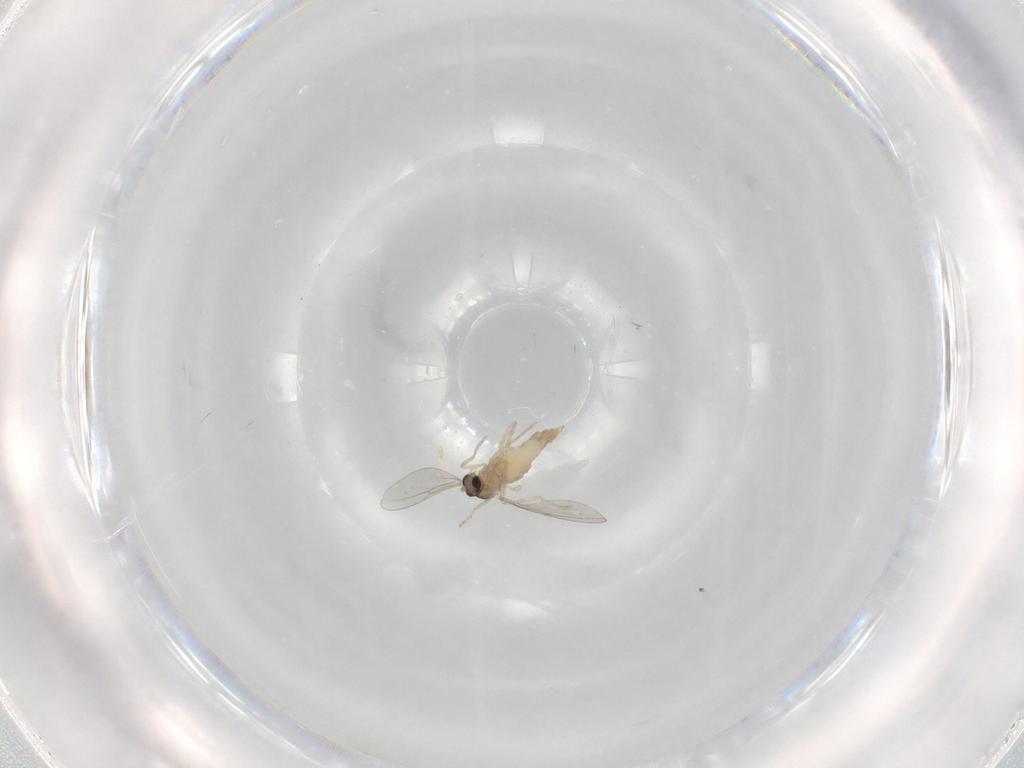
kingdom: Animalia
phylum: Arthropoda
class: Insecta
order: Diptera
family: Cecidomyiidae
